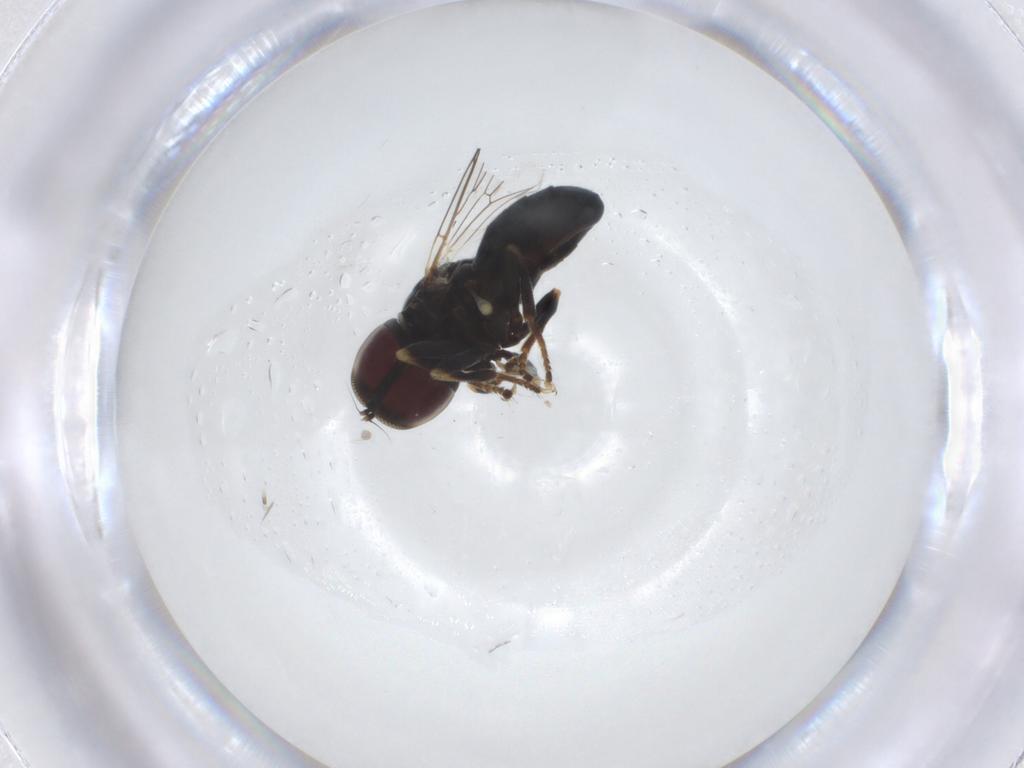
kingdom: Animalia
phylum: Arthropoda
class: Insecta
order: Diptera
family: Pipunculidae
